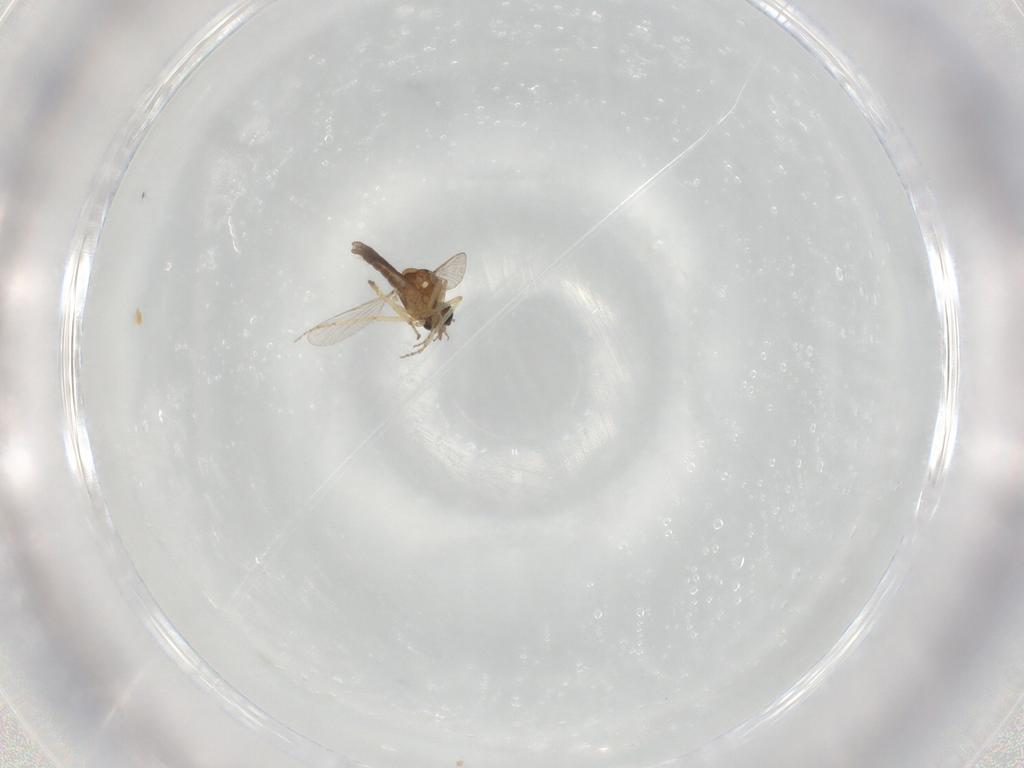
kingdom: Animalia
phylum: Arthropoda
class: Insecta
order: Diptera
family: Ceratopogonidae
